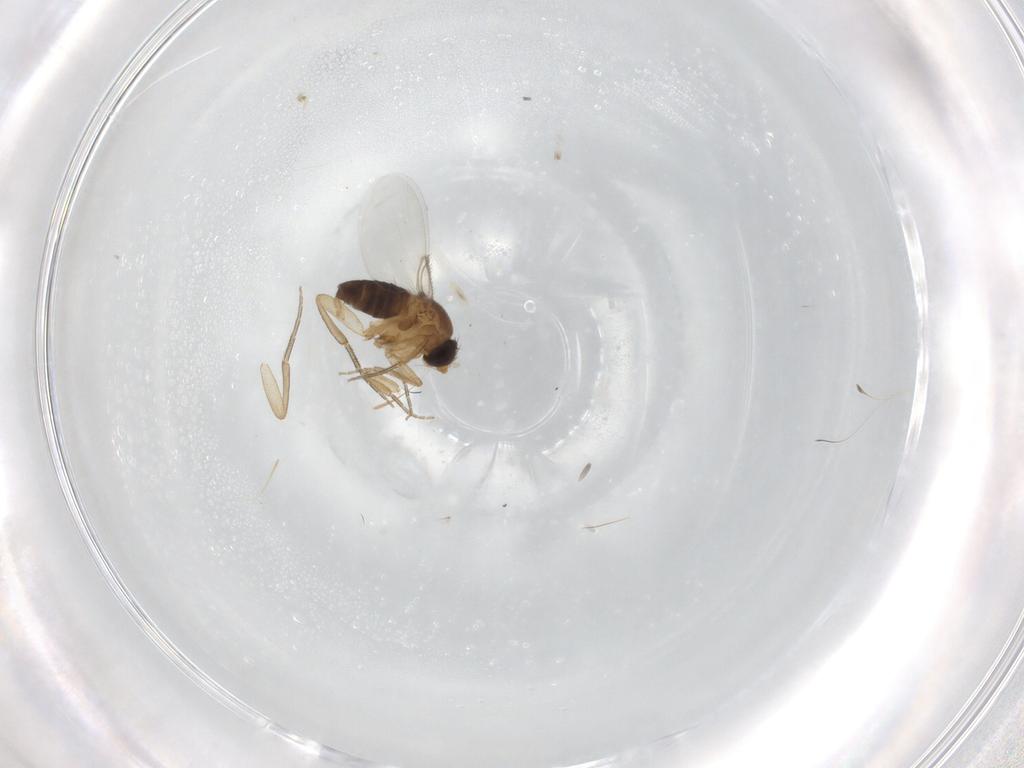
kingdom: Animalia
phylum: Arthropoda
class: Insecta
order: Diptera
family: Phoridae
